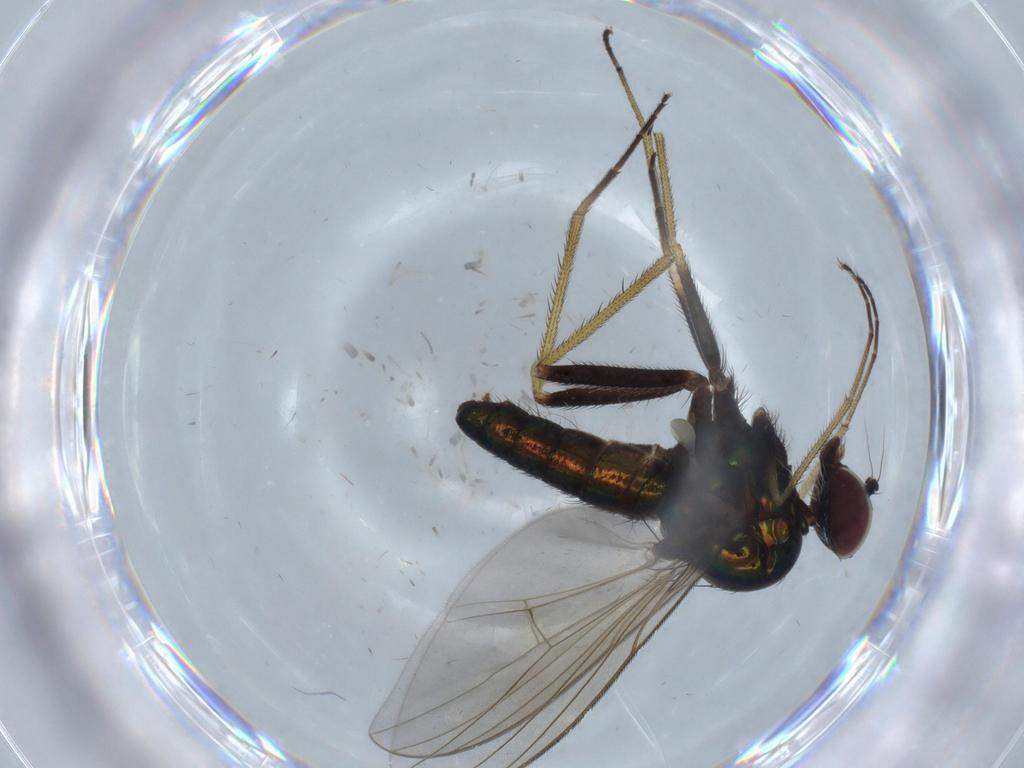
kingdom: Animalia
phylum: Arthropoda
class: Insecta
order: Diptera
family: Dolichopodidae
